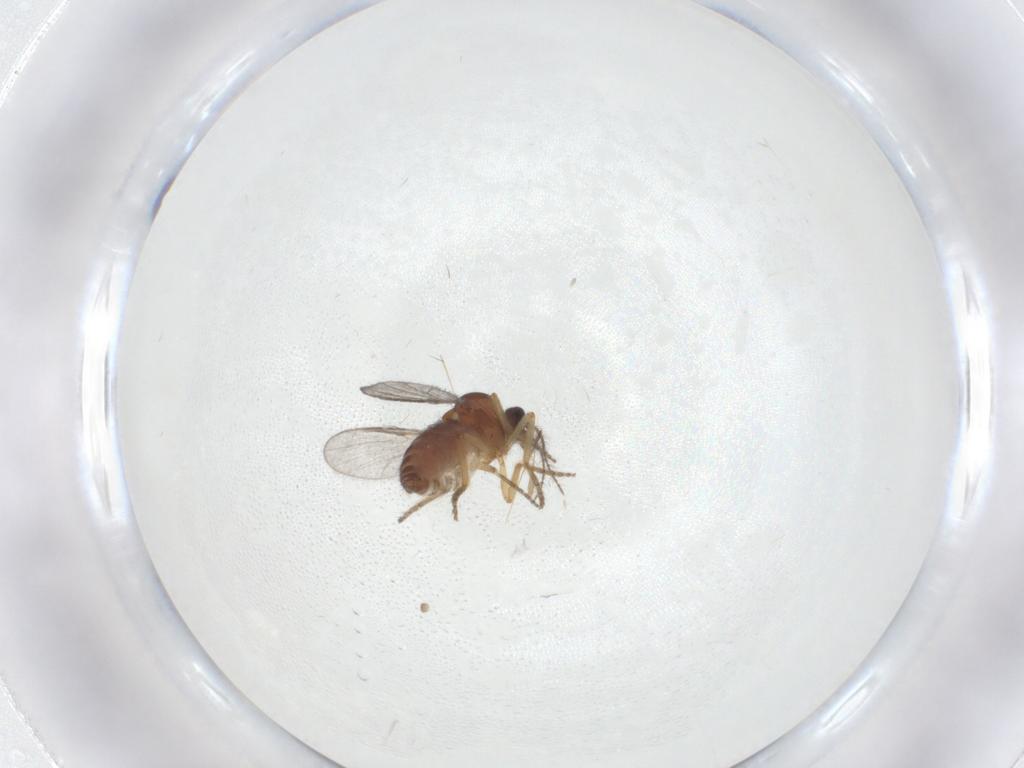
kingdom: Animalia
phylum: Arthropoda
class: Insecta
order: Diptera
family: Ceratopogonidae
